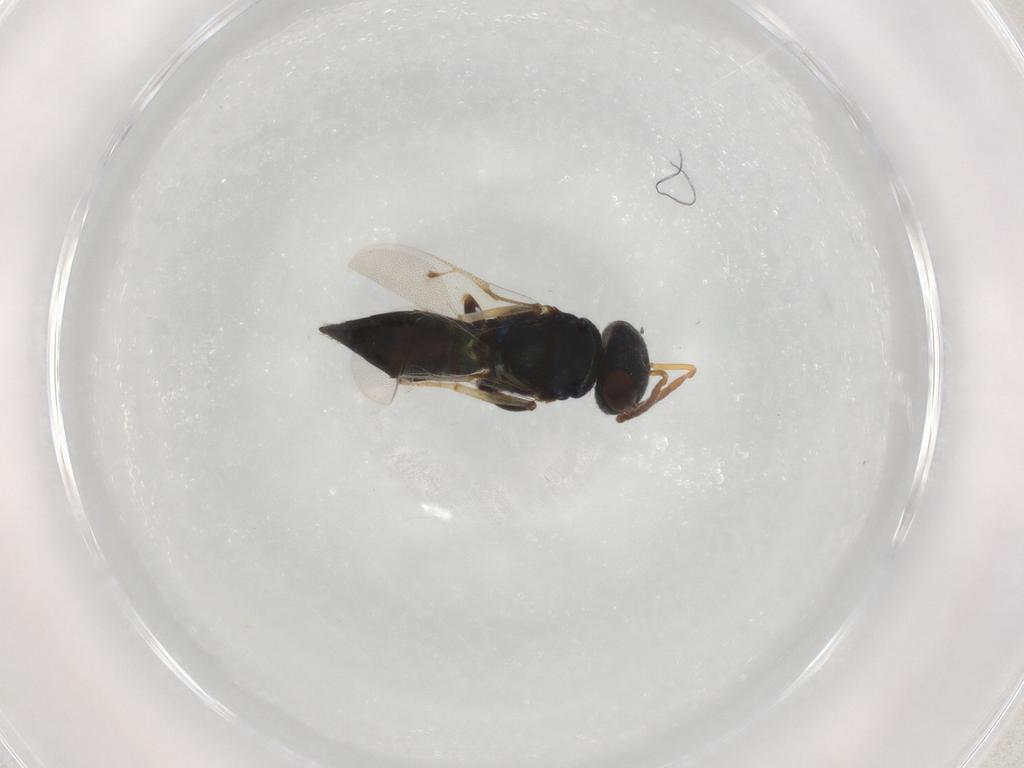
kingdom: Animalia
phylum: Arthropoda
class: Insecta
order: Hymenoptera
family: Pteromalidae
